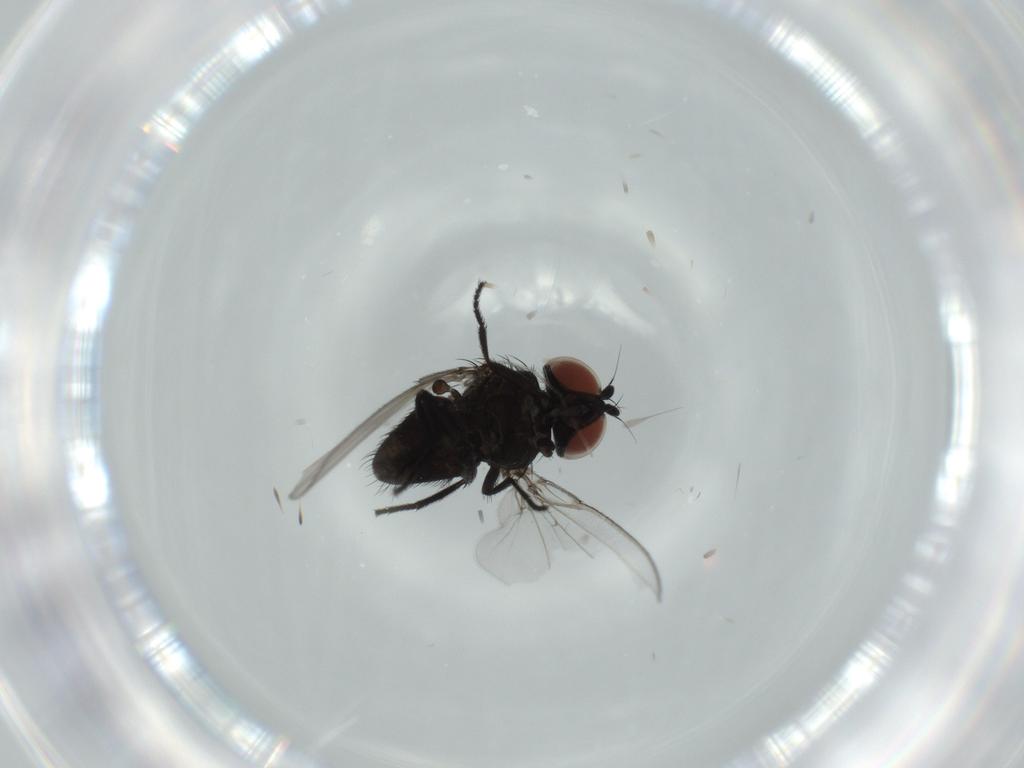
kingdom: Animalia
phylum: Arthropoda
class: Insecta
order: Diptera
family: Milichiidae
